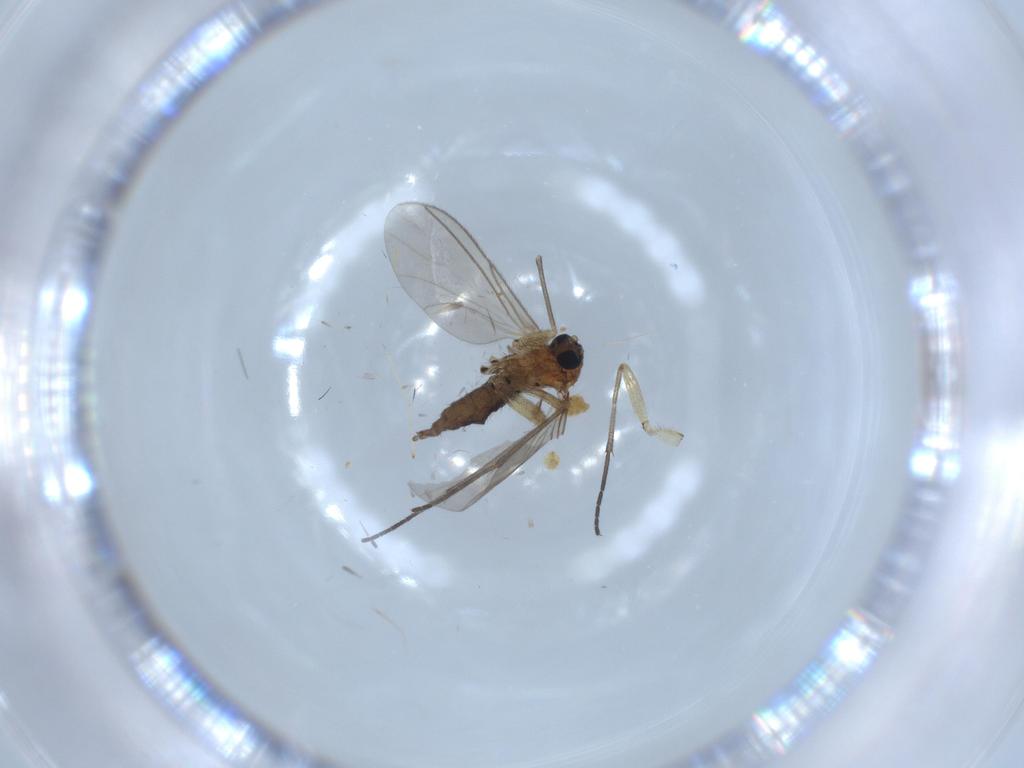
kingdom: Animalia
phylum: Arthropoda
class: Insecta
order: Diptera
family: Sciaridae
